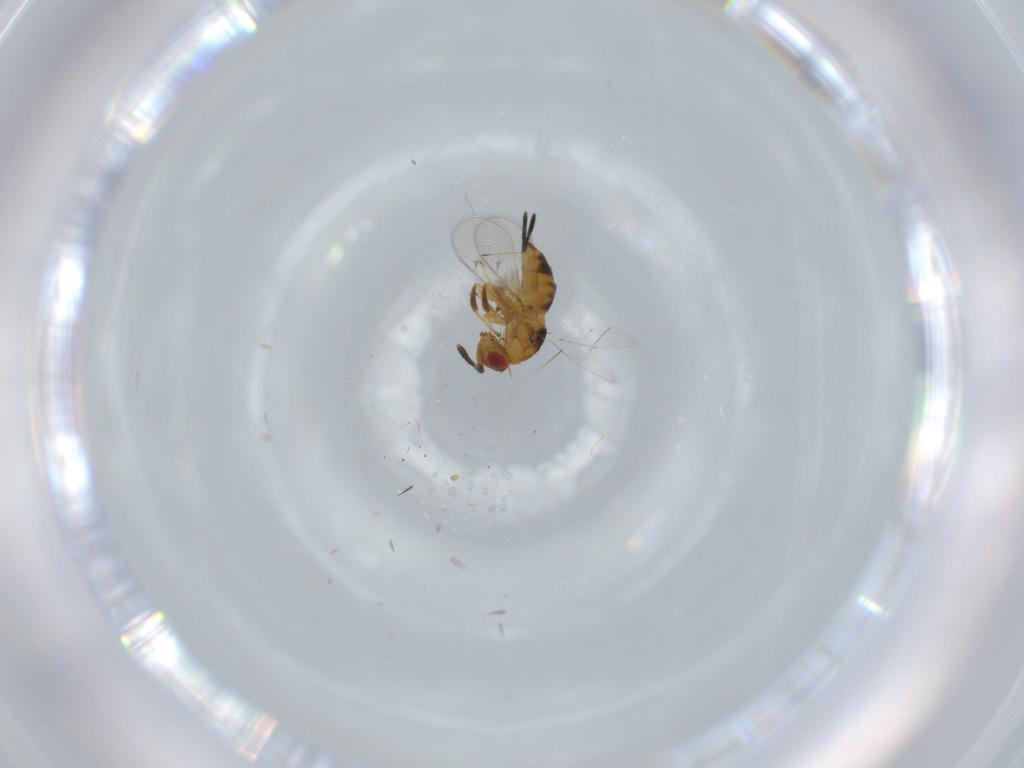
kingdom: Animalia
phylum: Arthropoda
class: Insecta
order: Hymenoptera
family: Torymidae
